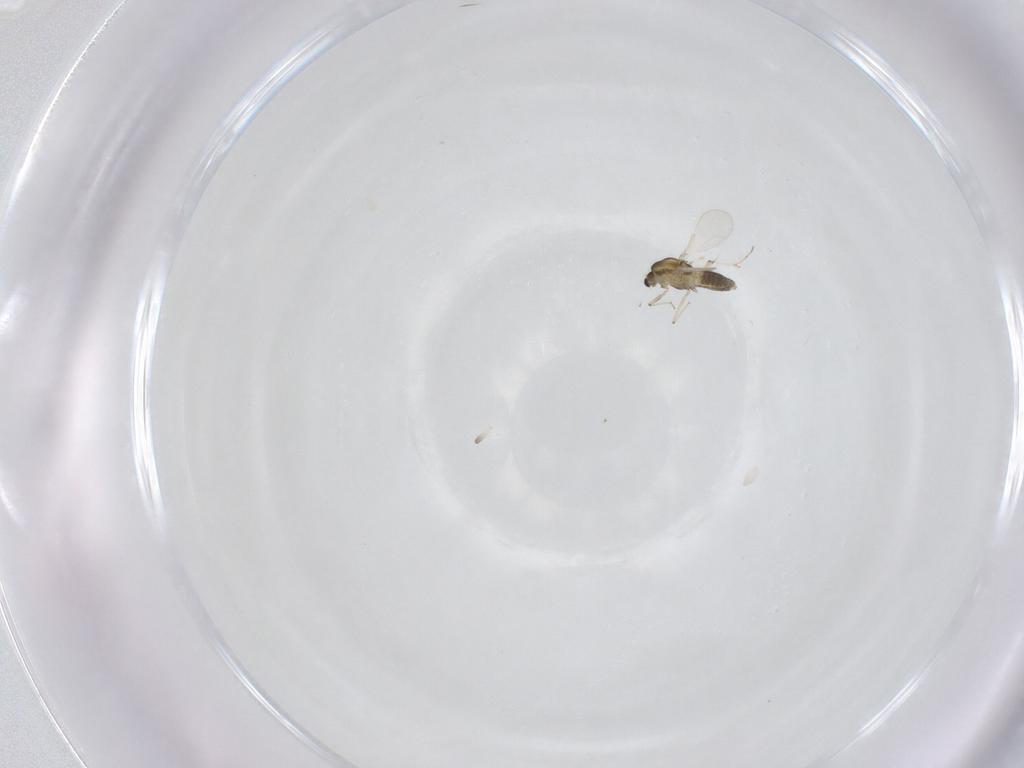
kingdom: Animalia
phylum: Arthropoda
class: Insecta
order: Diptera
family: Chironomidae
